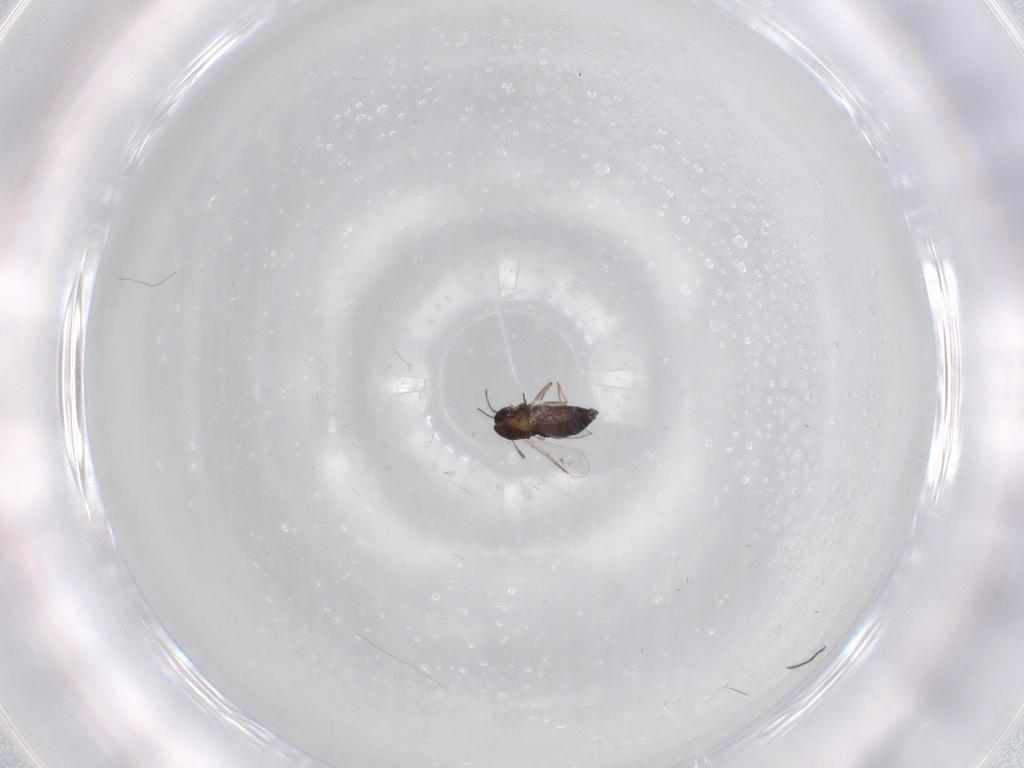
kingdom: Animalia
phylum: Arthropoda
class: Insecta
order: Diptera
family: Chironomidae
